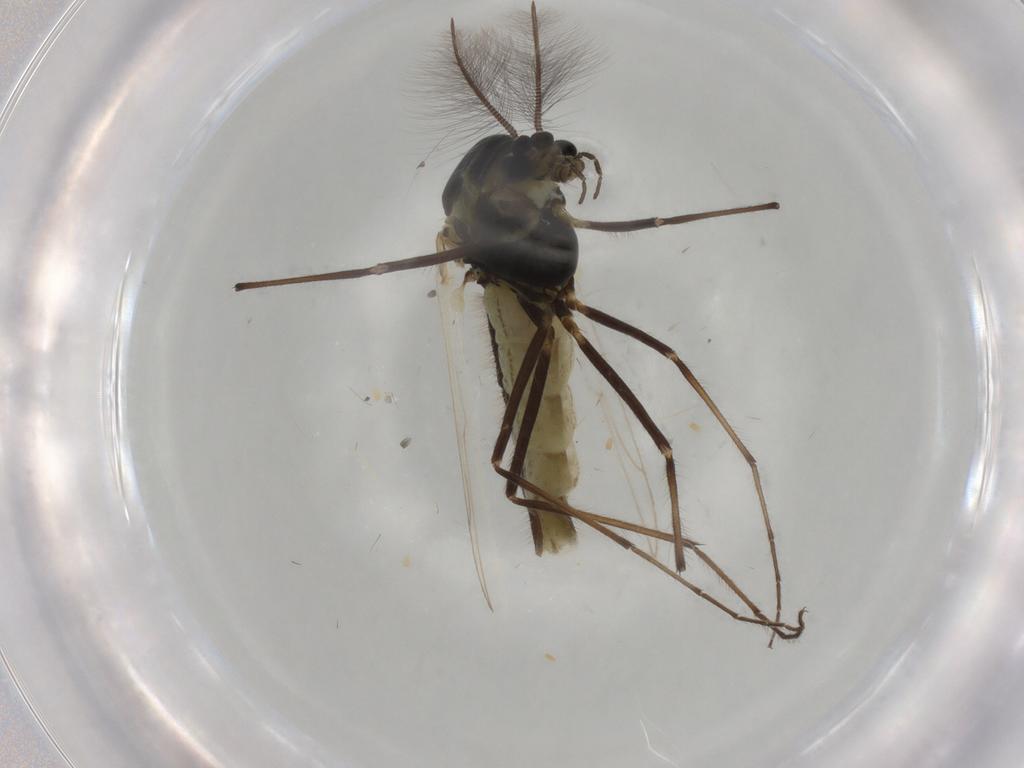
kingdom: Animalia
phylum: Arthropoda
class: Insecta
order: Diptera
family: Chironomidae
